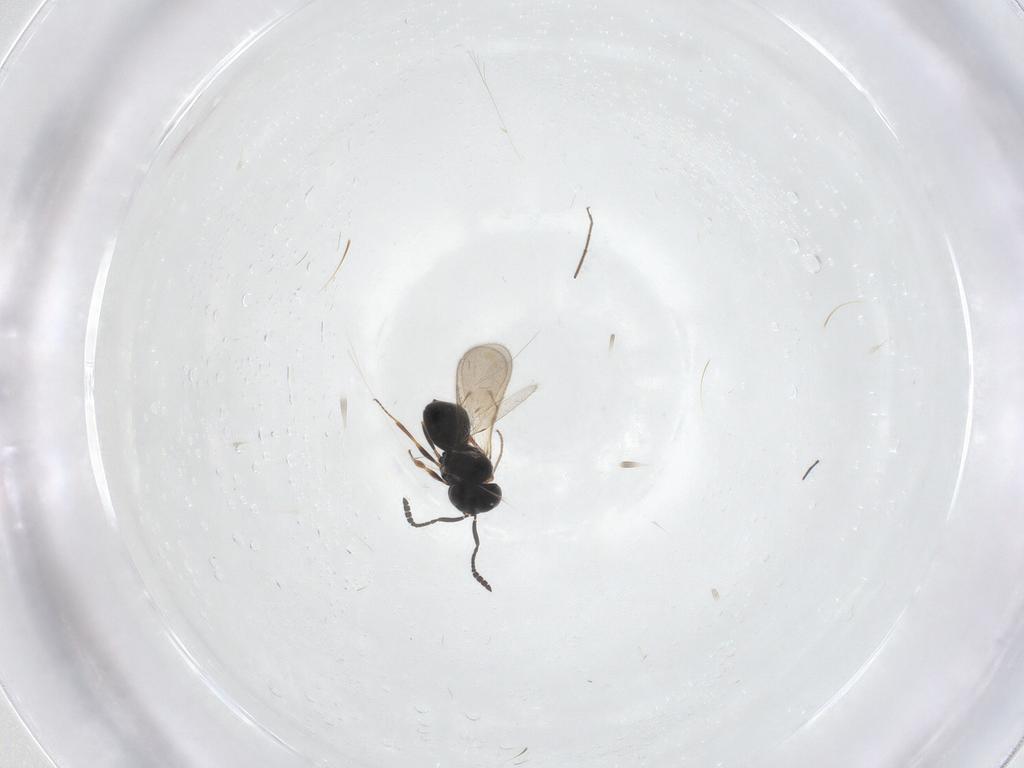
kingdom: Animalia
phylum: Arthropoda
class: Insecta
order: Hymenoptera
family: Scelionidae
